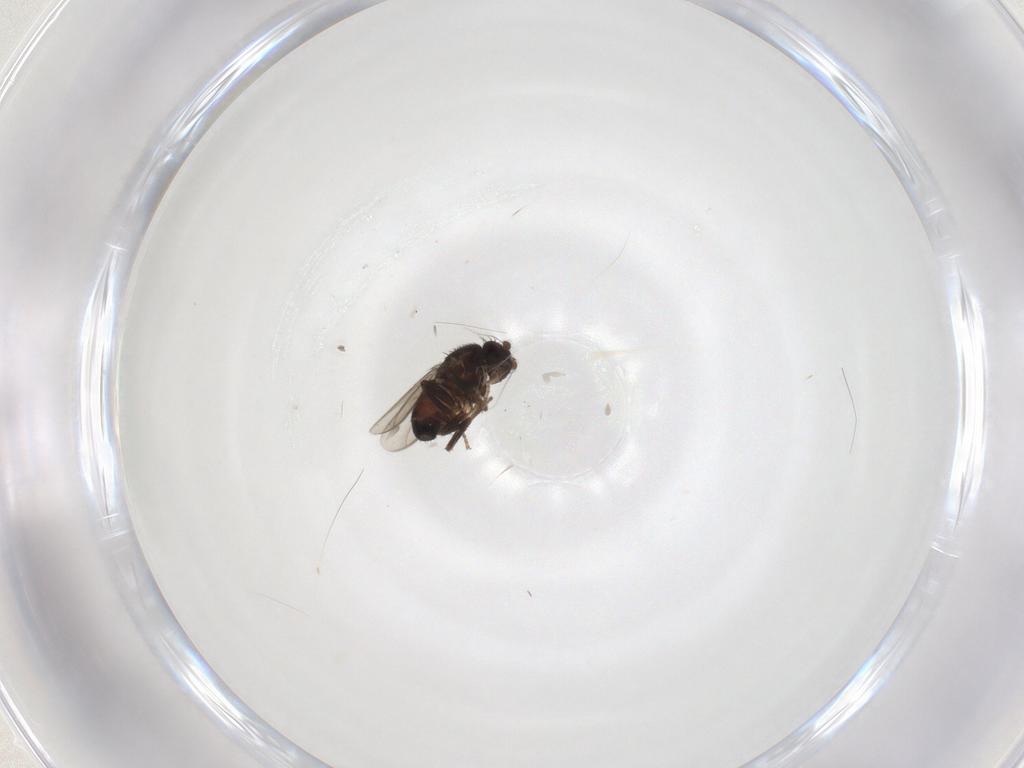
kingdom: Animalia
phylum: Arthropoda
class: Insecta
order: Diptera
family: Sphaeroceridae
